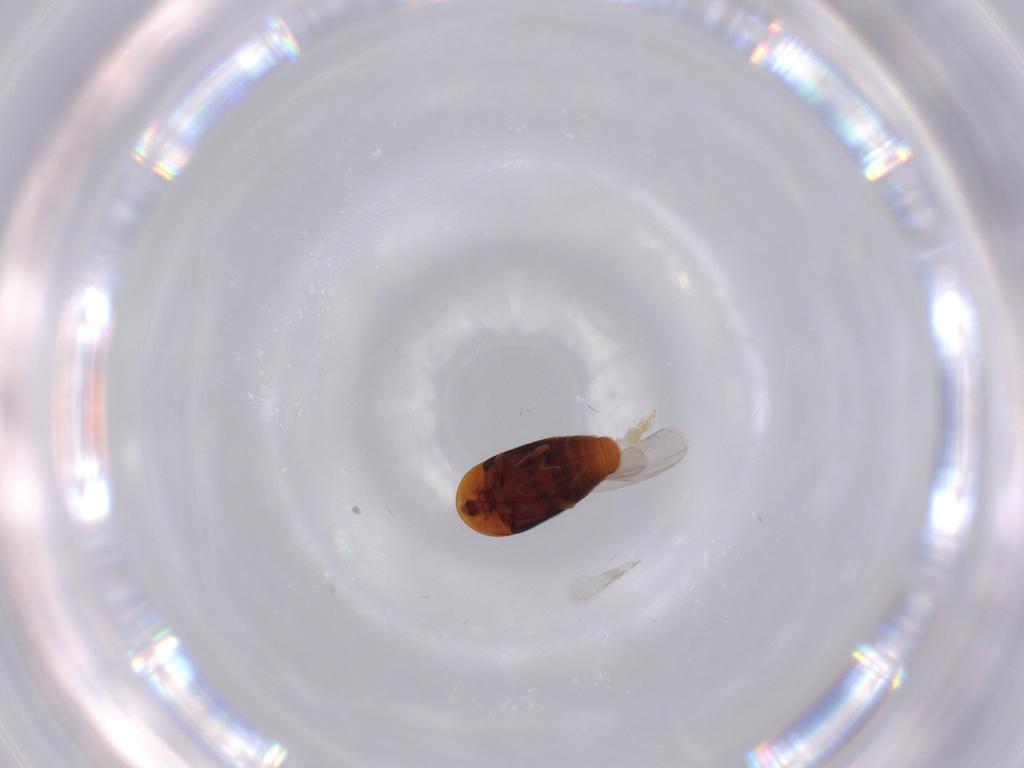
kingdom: Animalia
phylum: Arthropoda
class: Insecta
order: Coleoptera
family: Corylophidae
